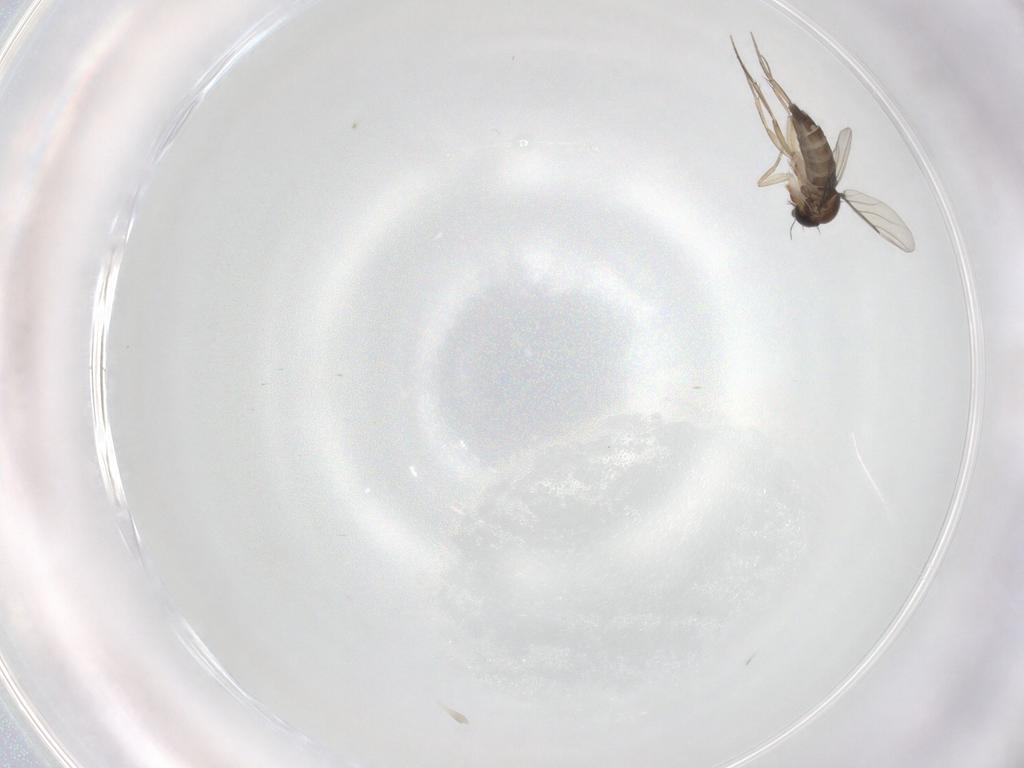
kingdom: Animalia
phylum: Arthropoda
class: Insecta
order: Diptera
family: Phoridae
